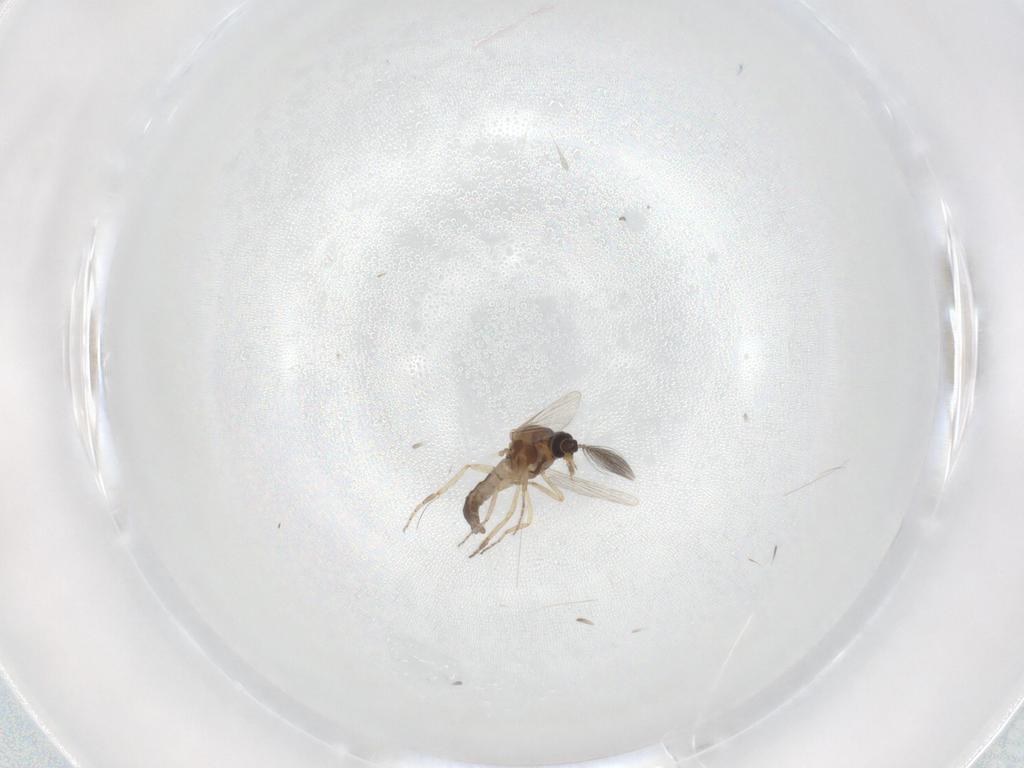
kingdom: Animalia
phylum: Arthropoda
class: Insecta
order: Diptera
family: Ceratopogonidae
